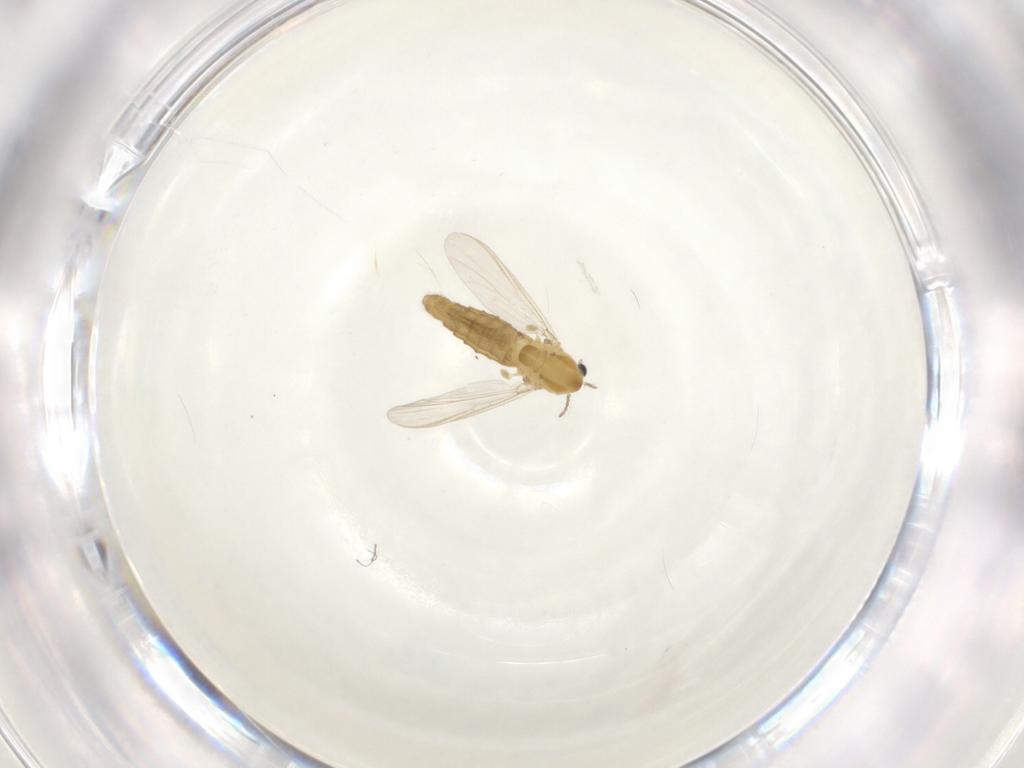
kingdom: Animalia
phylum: Arthropoda
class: Insecta
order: Diptera
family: Chironomidae
